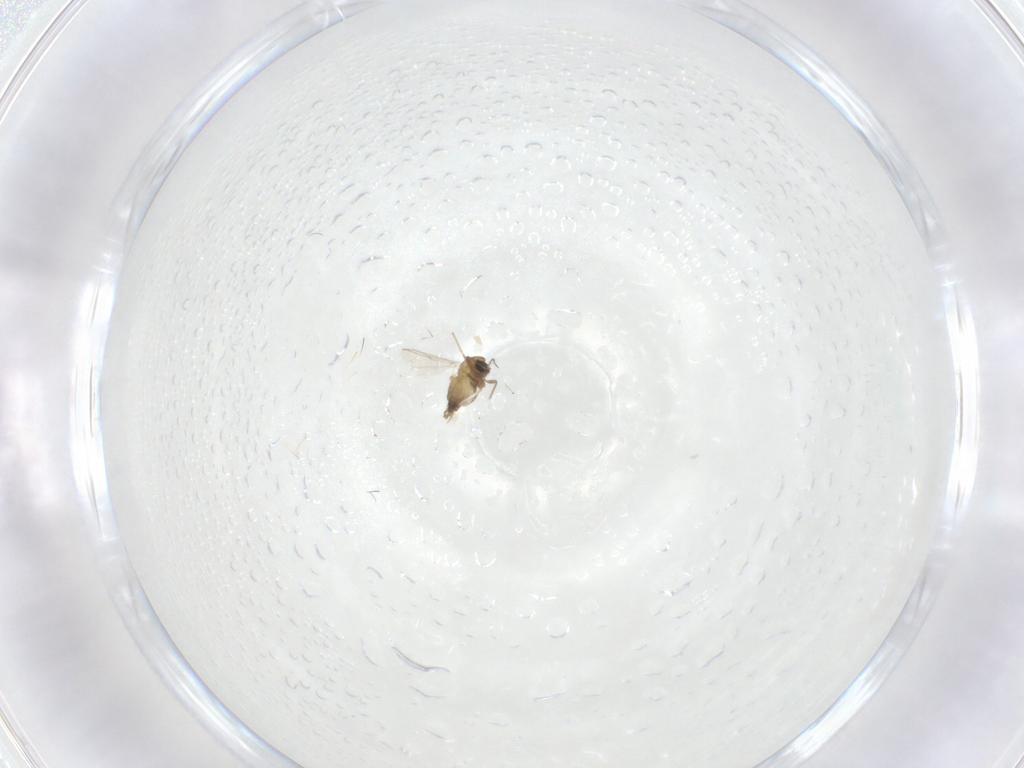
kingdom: Animalia
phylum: Arthropoda
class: Insecta
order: Diptera
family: Chironomidae
